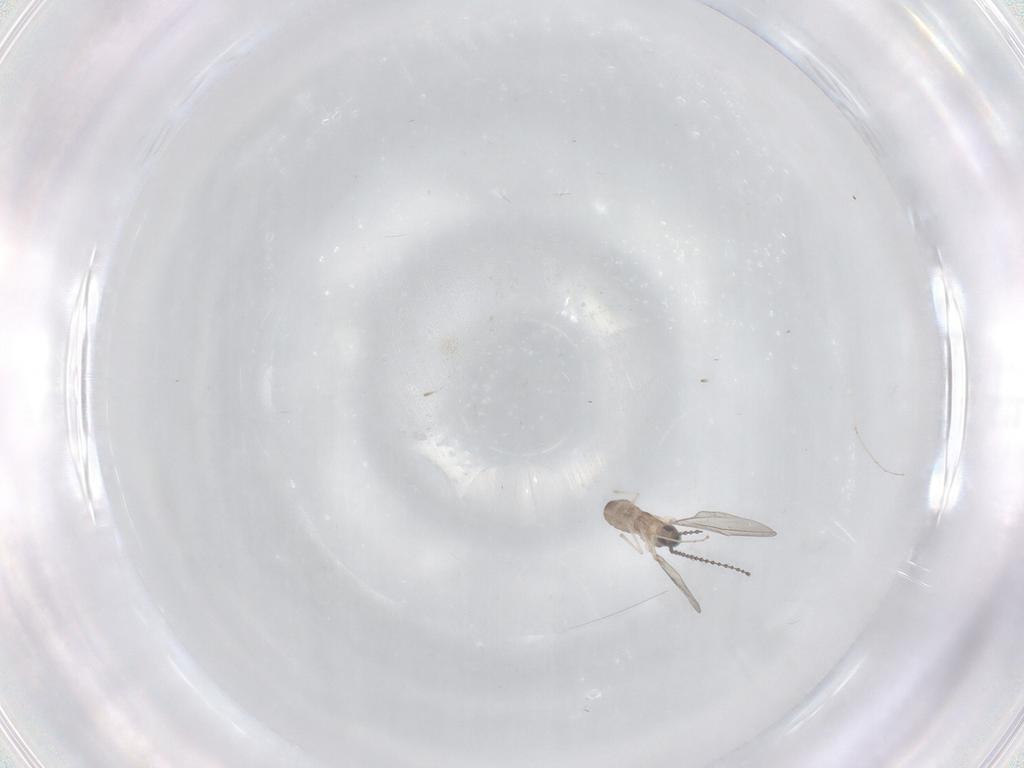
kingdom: Animalia
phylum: Arthropoda
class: Insecta
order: Diptera
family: Cecidomyiidae
